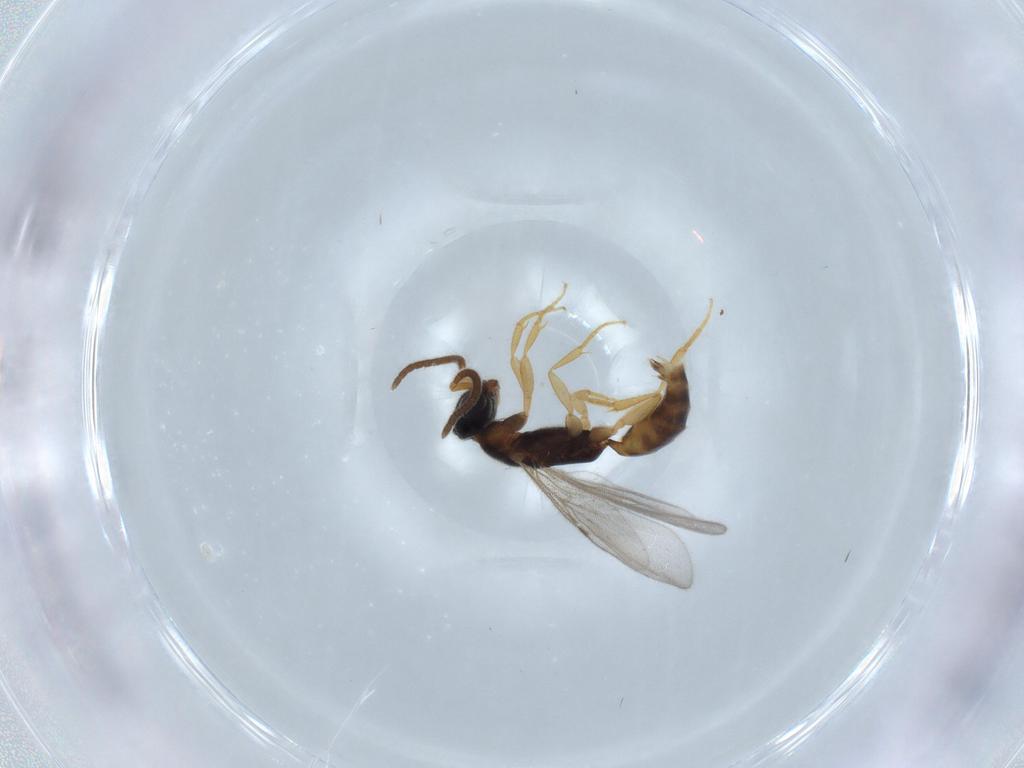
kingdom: Animalia
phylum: Arthropoda
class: Insecta
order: Hymenoptera
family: Bethylidae
